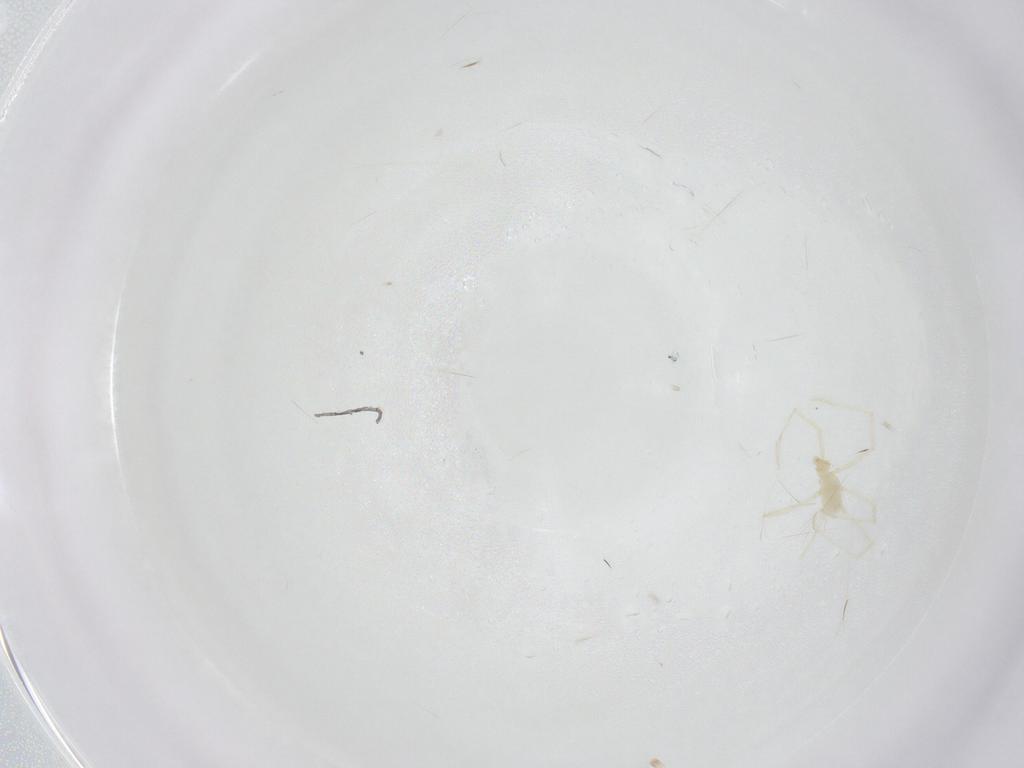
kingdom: Animalia
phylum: Arthropoda
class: Arachnida
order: Trombidiformes
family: Erythraeidae
